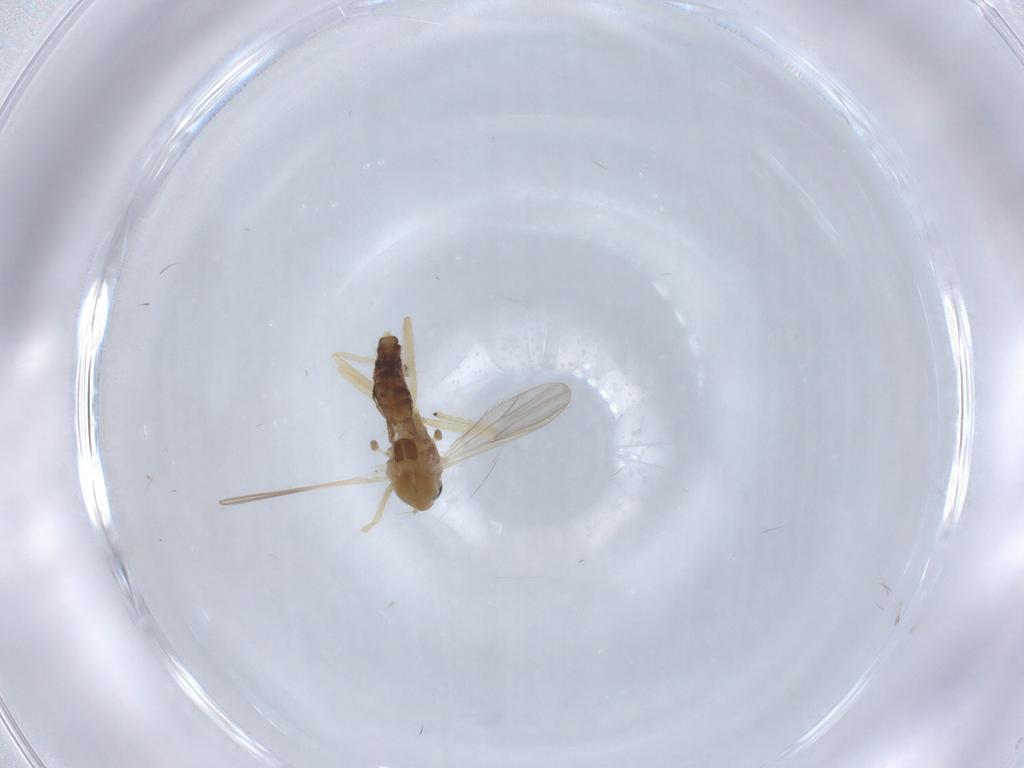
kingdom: Animalia
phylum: Arthropoda
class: Insecta
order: Diptera
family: Chironomidae
